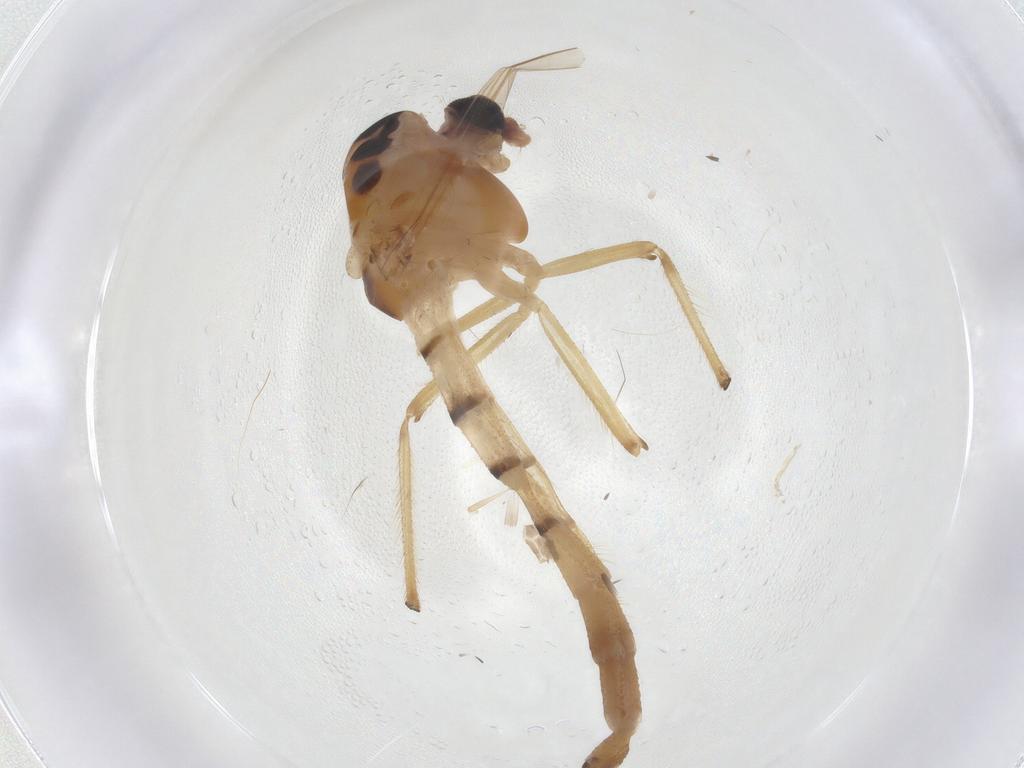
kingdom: Animalia
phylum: Arthropoda
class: Insecta
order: Diptera
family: Chironomidae
